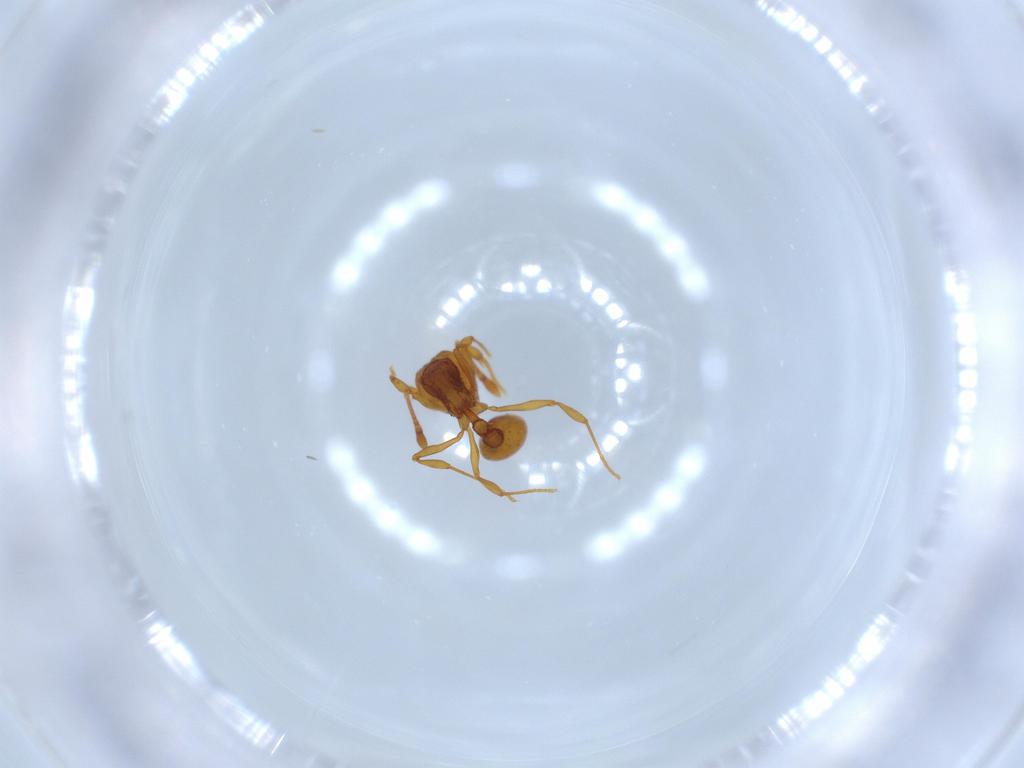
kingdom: Animalia
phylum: Arthropoda
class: Insecta
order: Hymenoptera
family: Formicidae
